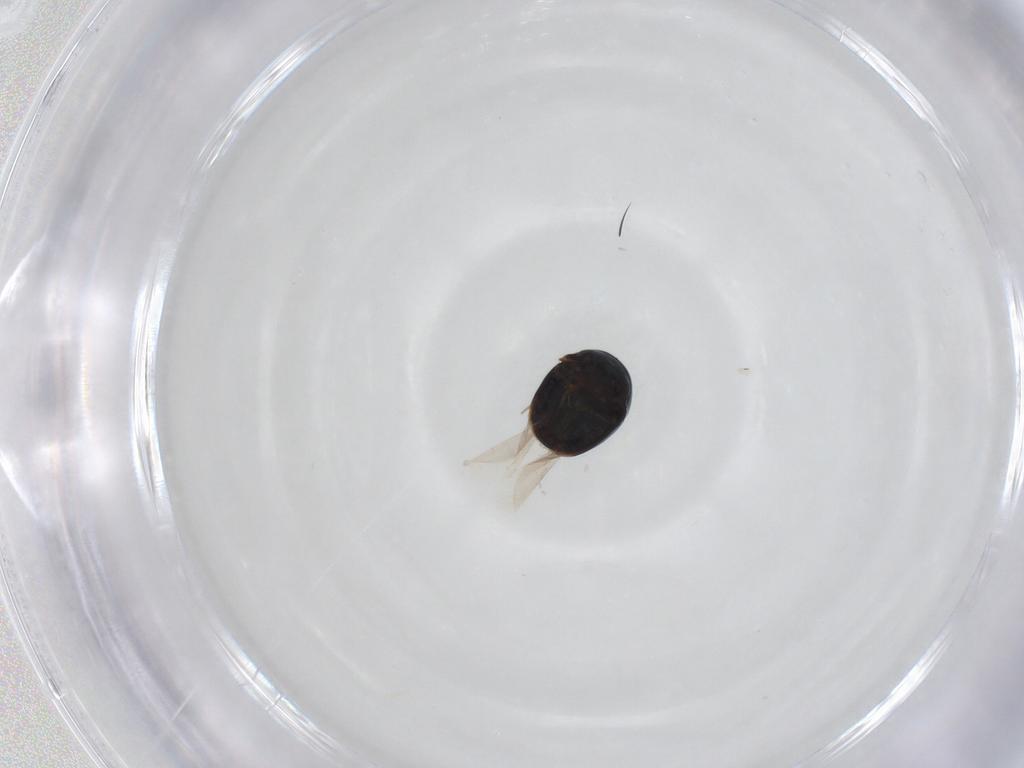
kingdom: Animalia
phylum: Arthropoda
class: Insecta
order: Coleoptera
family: Cybocephalidae
